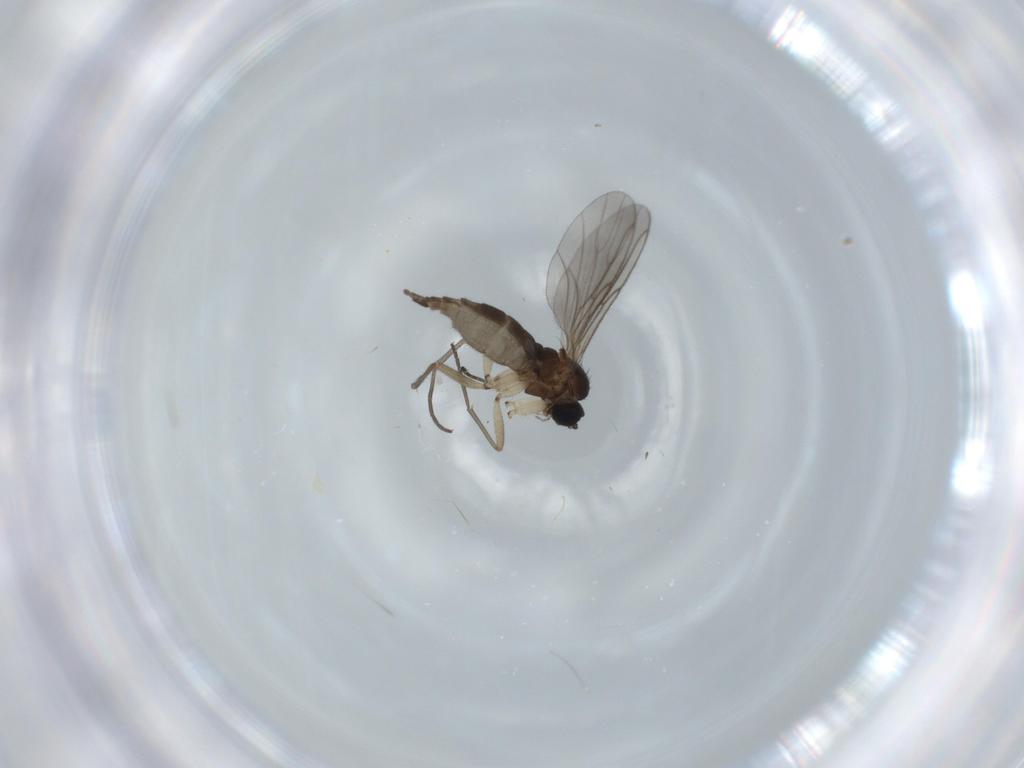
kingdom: Animalia
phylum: Arthropoda
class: Insecta
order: Diptera
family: Sciaridae
